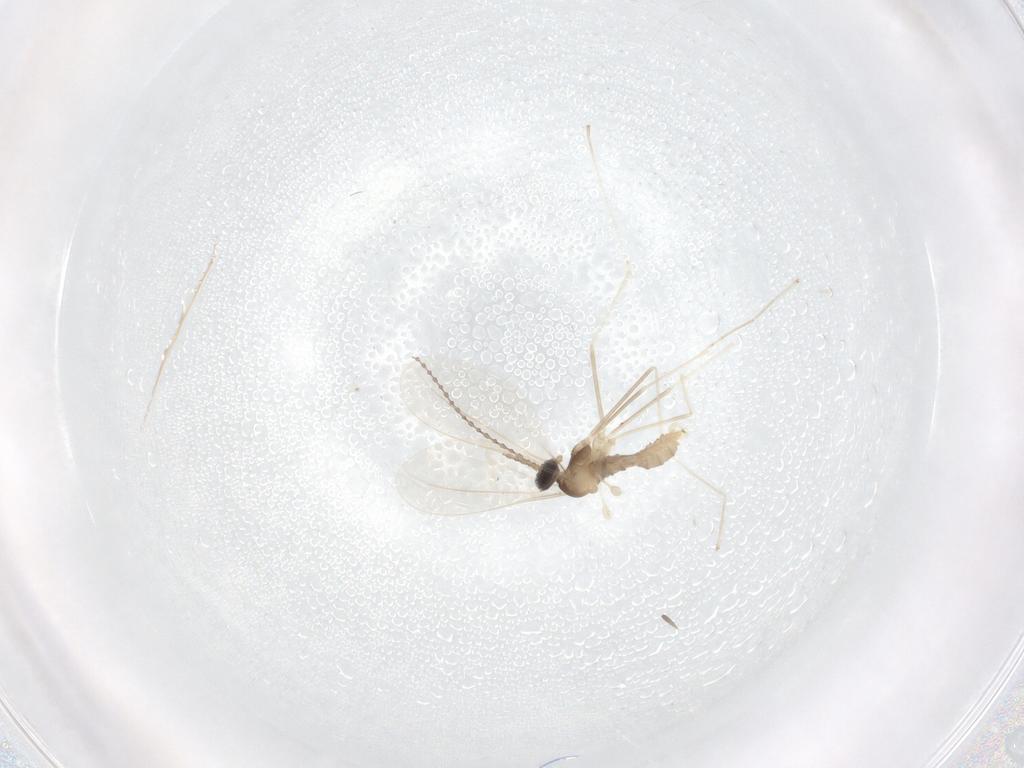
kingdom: Animalia
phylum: Arthropoda
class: Insecta
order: Diptera
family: Cecidomyiidae
